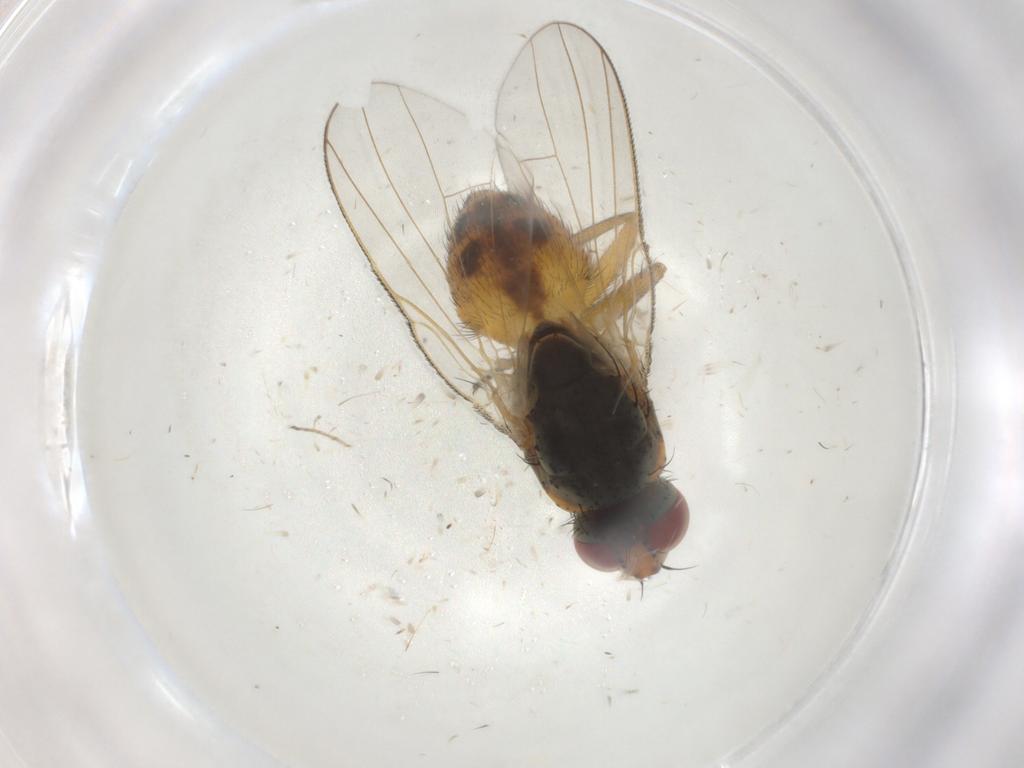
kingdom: Animalia
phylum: Arthropoda
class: Insecta
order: Diptera
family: Muscidae
